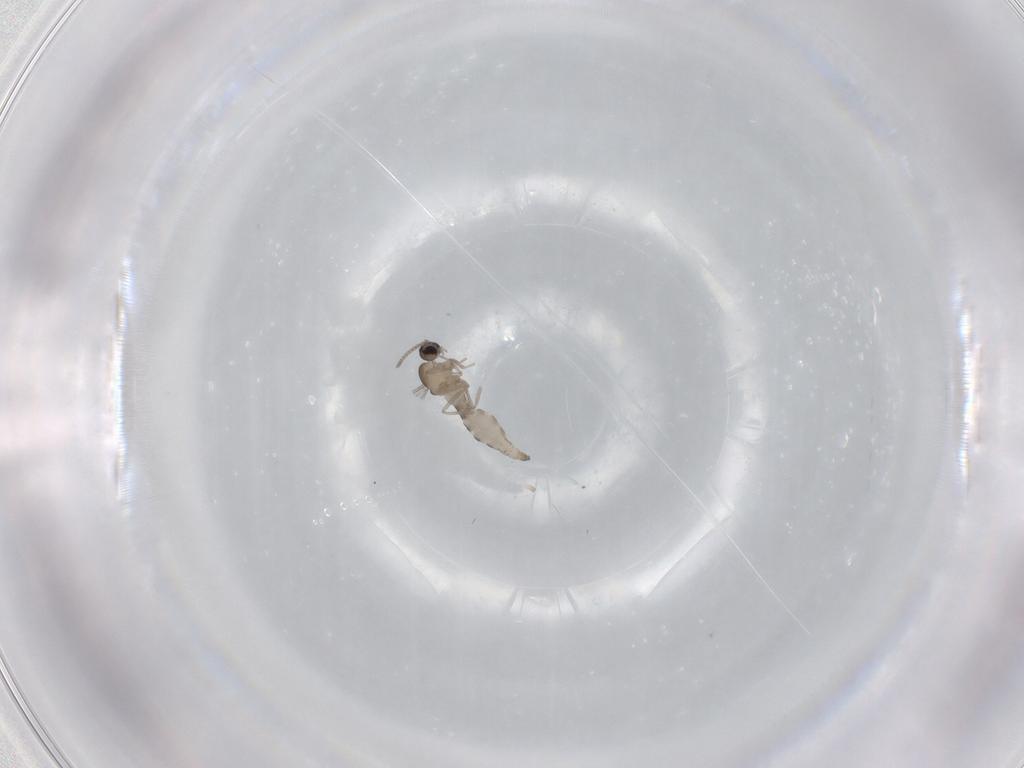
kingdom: Animalia
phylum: Arthropoda
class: Insecta
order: Diptera
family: Cecidomyiidae
